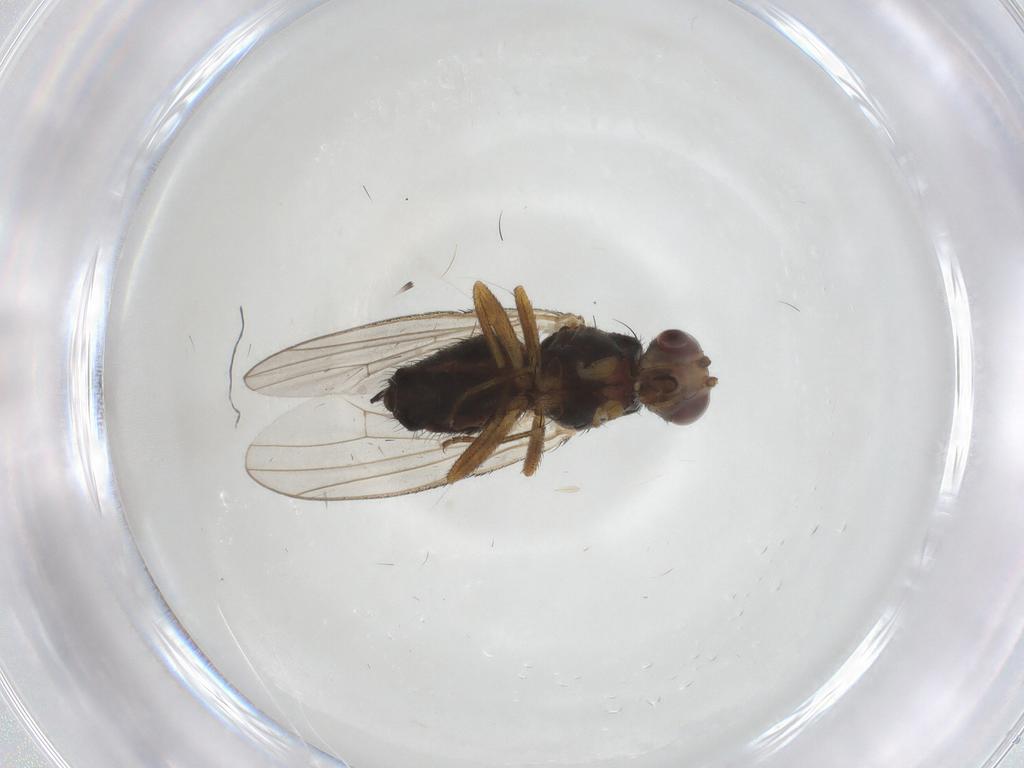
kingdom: Animalia
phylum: Arthropoda
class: Insecta
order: Diptera
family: Heleomyzidae
